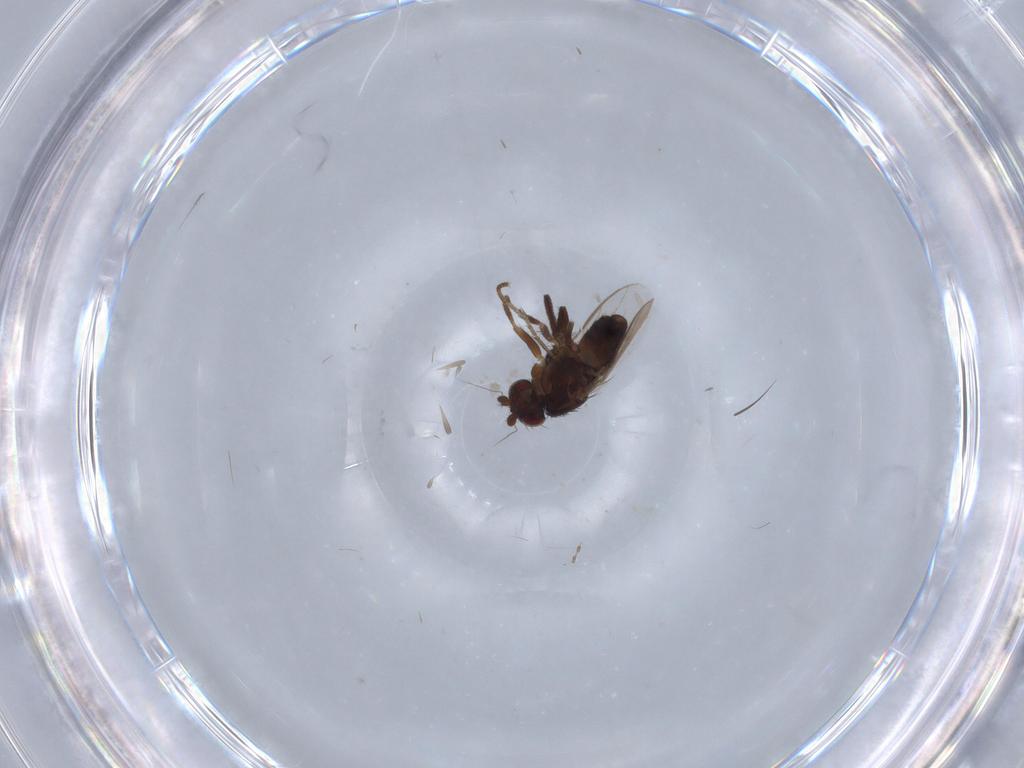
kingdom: Animalia
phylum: Arthropoda
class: Insecta
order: Diptera
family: Sphaeroceridae
